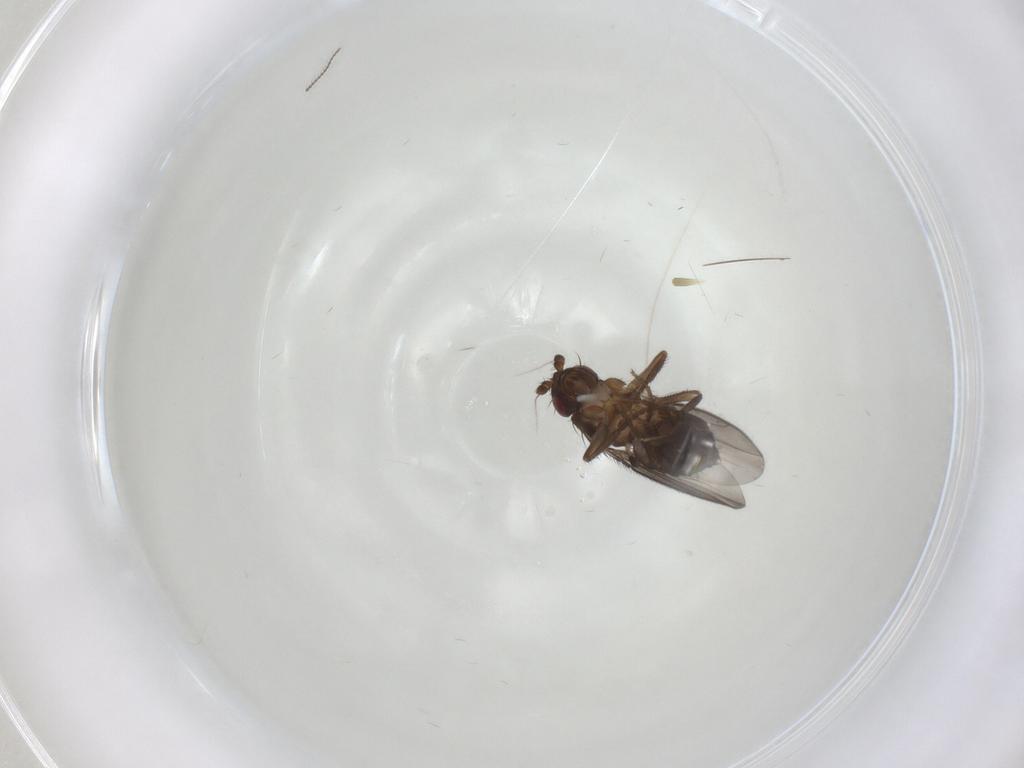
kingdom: Animalia
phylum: Arthropoda
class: Insecta
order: Diptera
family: Sphaeroceridae
